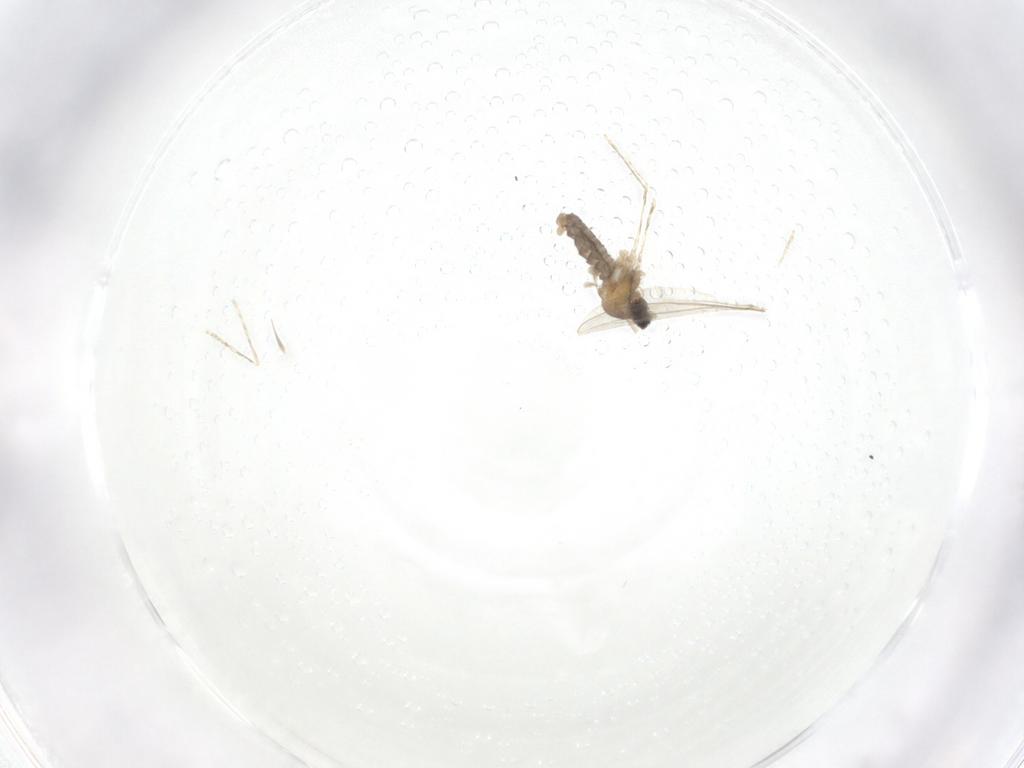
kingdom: Animalia
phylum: Arthropoda
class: Insecta
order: Diptera
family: Cecidomyiidae
